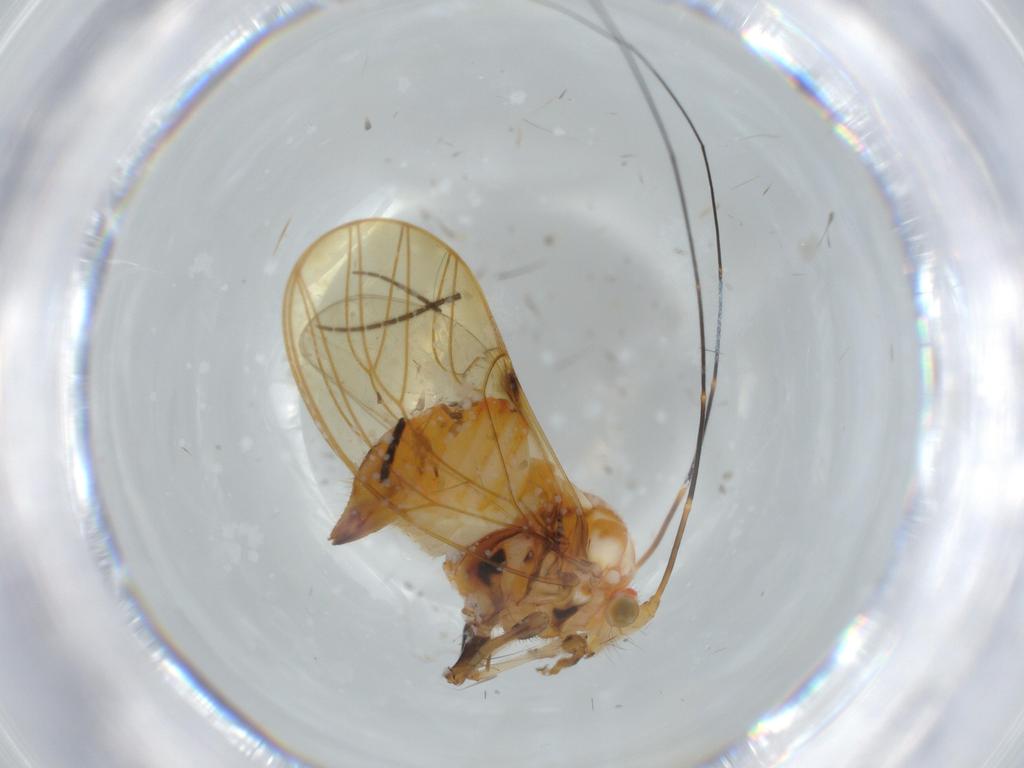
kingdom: Animalia
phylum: Arthropoda
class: Insecta
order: Hemiptera
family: Psyllidae
